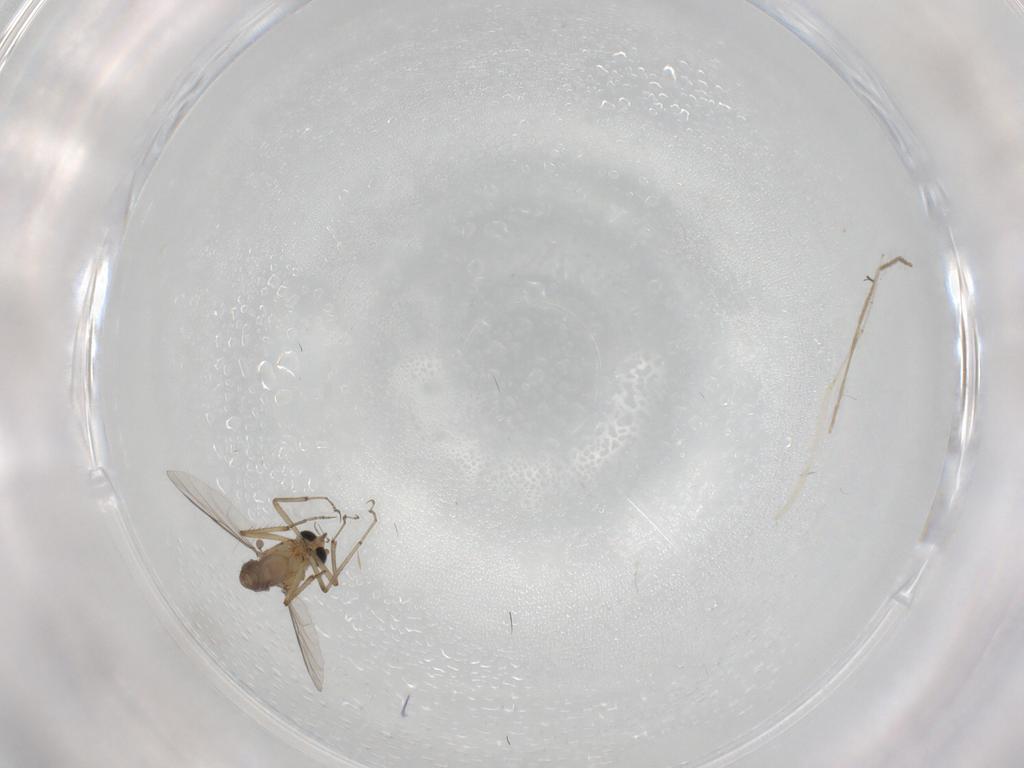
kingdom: Animalia
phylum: Arthropoda
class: Insecta
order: Diptera
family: Ceratopogonidae
